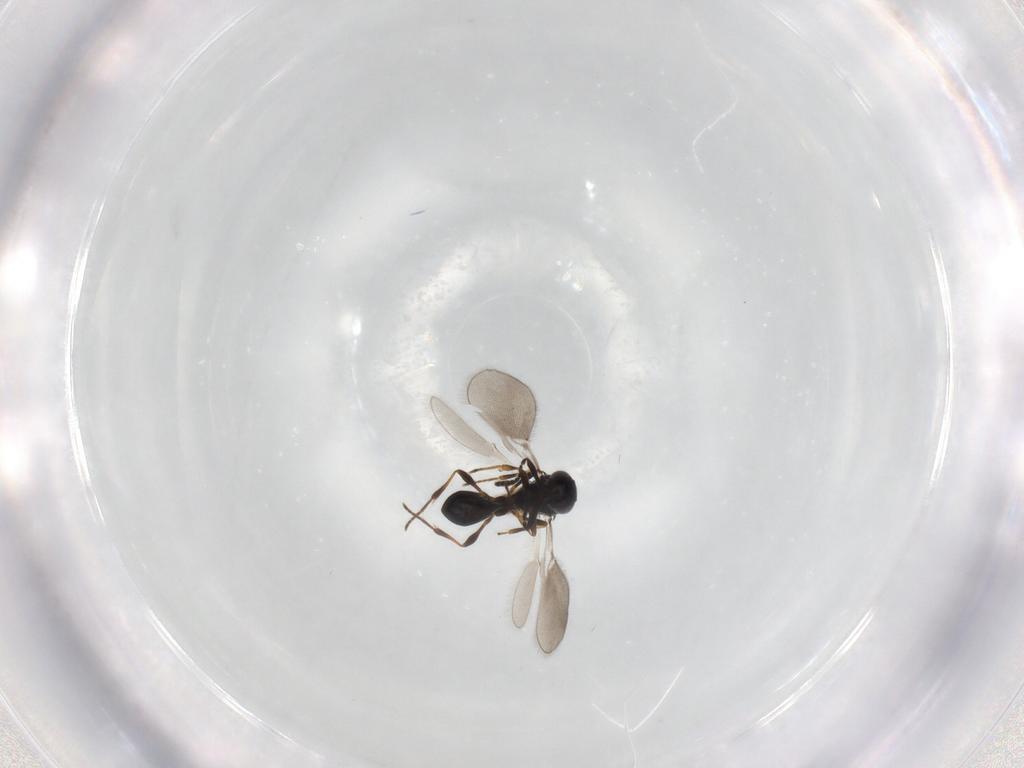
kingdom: Animalia
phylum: Arthropoda
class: Insecta
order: Hymenoptera
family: Platygastridae
